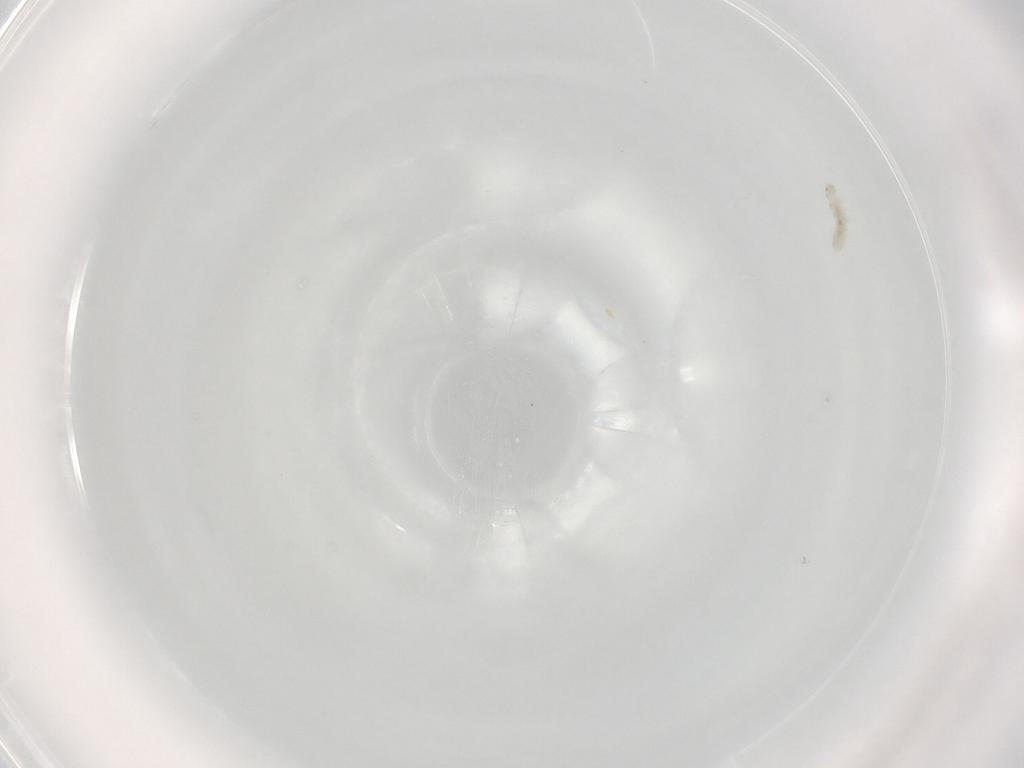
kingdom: Animalia
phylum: Arthropoda
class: Collembola
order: Entomobryomorpha
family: Isotomidae
